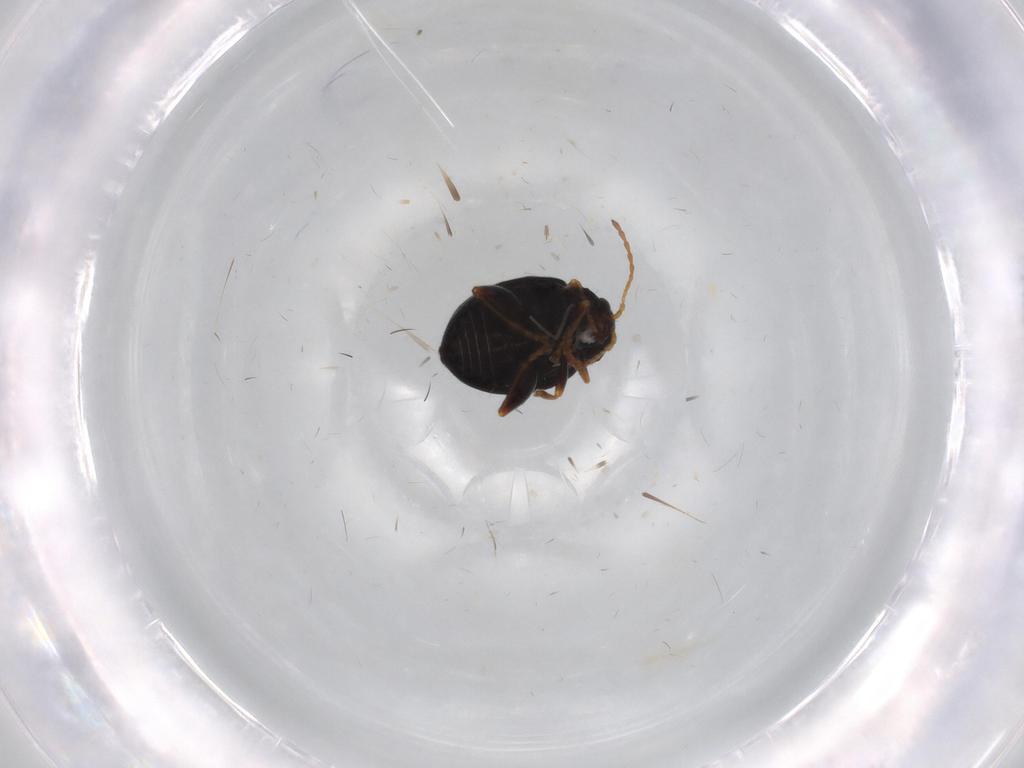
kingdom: Animalia
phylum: Arthropoda
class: Insecta
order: Coleoptera
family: Chrysomelidae
